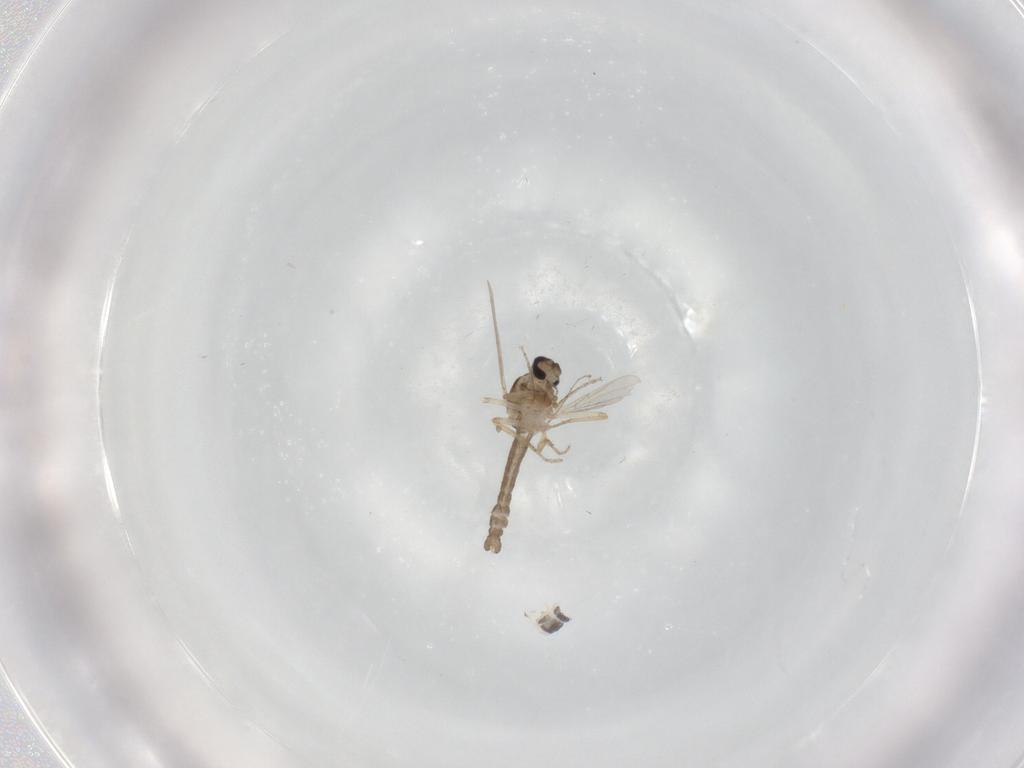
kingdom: Animalia
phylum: Arthropoda
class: Insecta
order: Diptera
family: Ceratopogonidae
